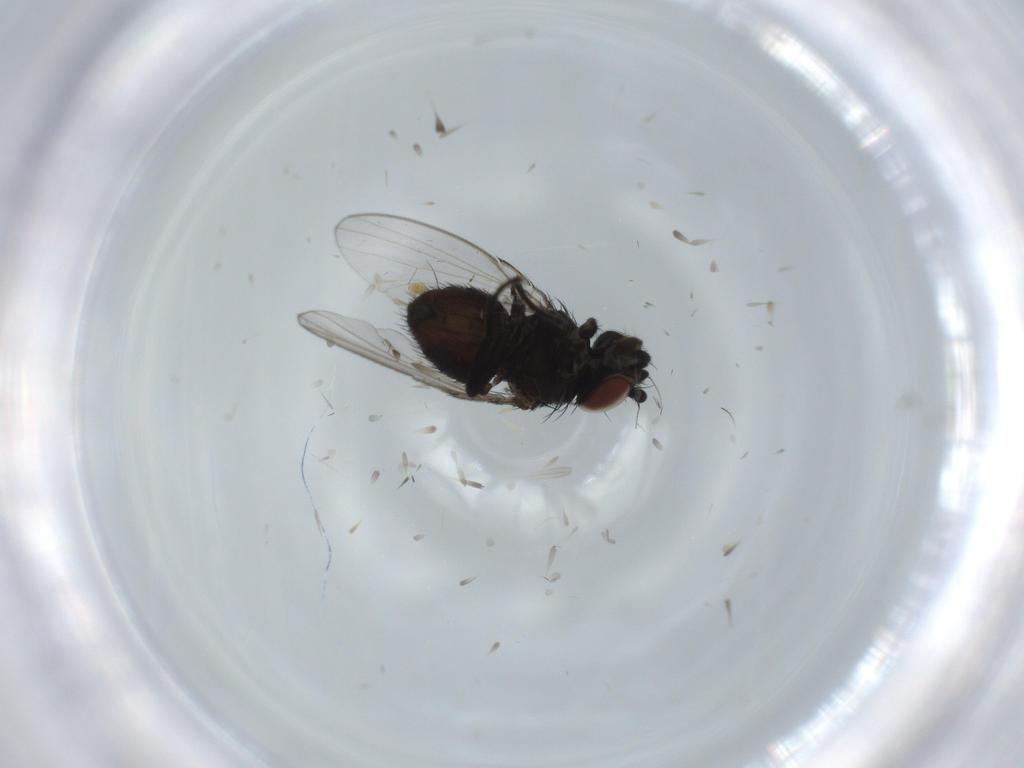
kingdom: Animalia
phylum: Arthropoda
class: Insecta
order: Diptera
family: Milichiidae
